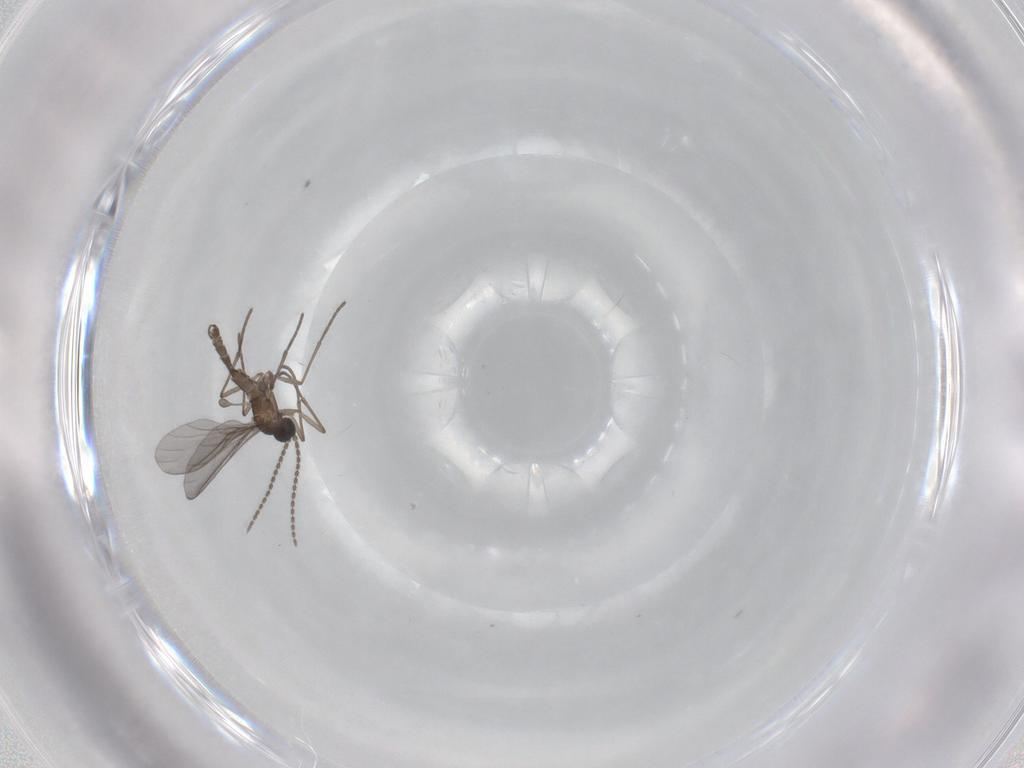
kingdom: Animalia
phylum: Arthropoda
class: Insecta
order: Diptera
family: Sciaridae
